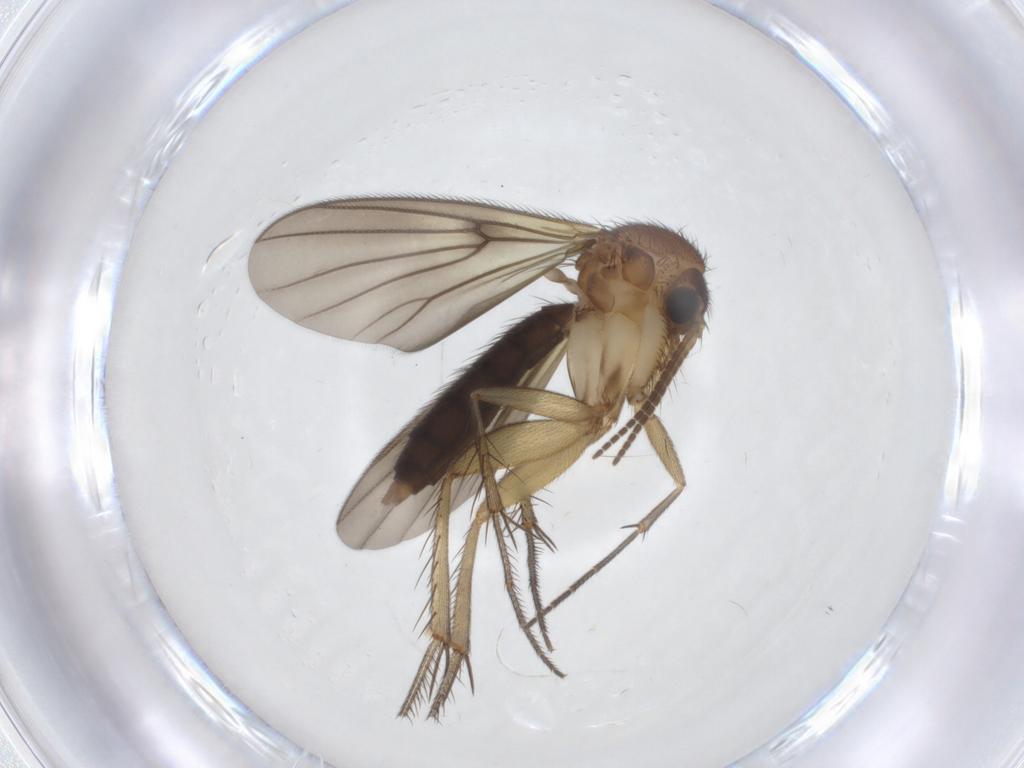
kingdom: Animalia
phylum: Arthropoda
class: Insecta
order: Diptera
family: Mycetophilidae
